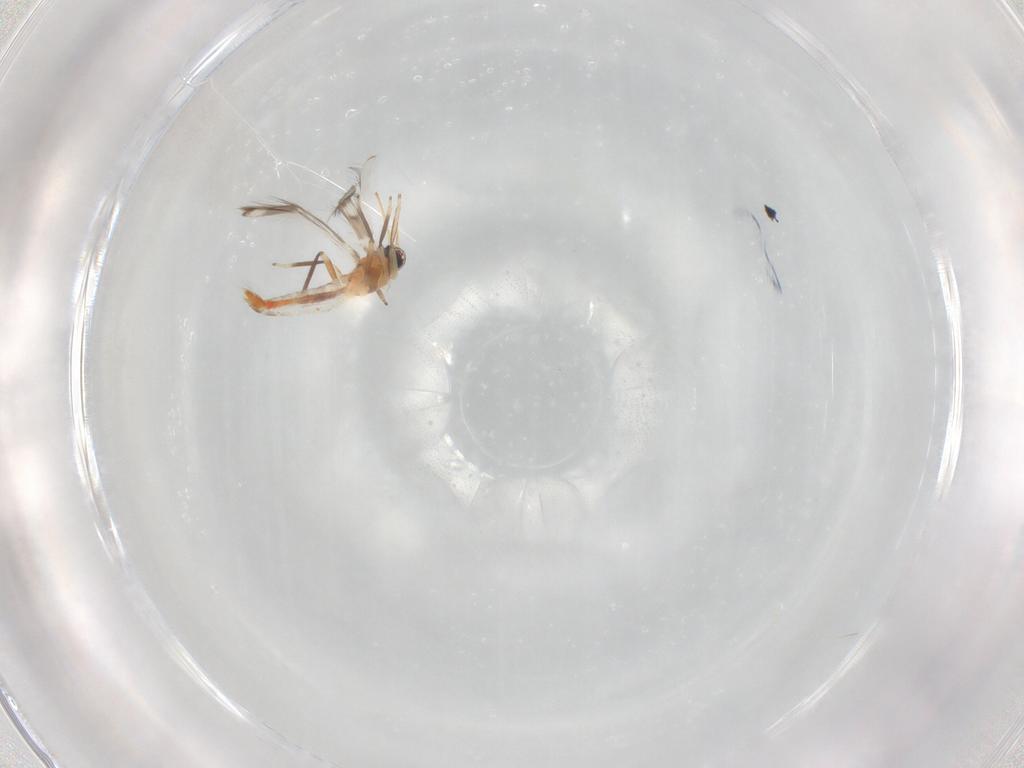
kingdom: Animalia
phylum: Arthropoda
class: Insecta
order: Thysanoptera
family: Aeolothripidae
